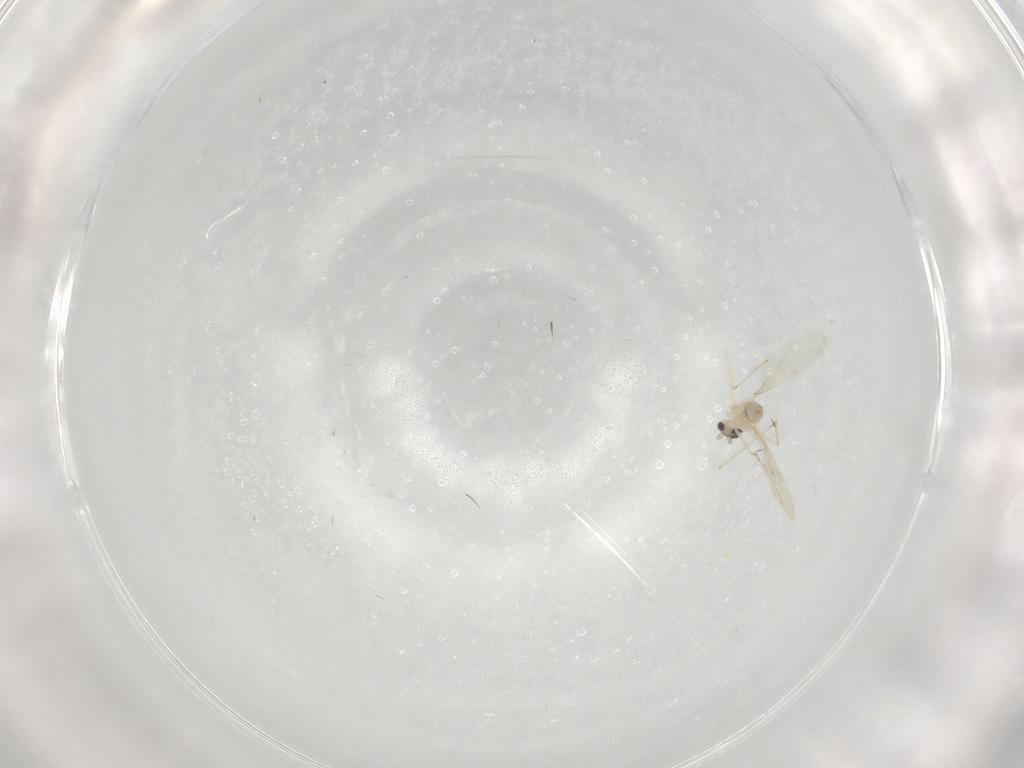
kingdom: Animalia
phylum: Arthropoda
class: Insecta
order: Diptera
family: Cecidomyiidae
